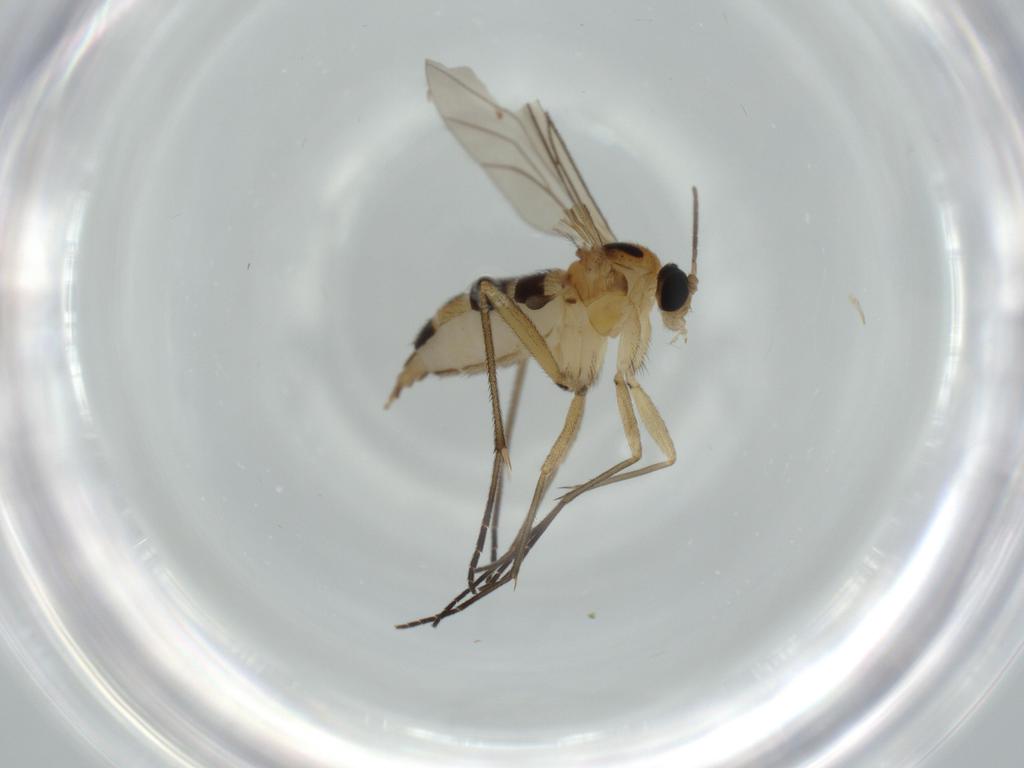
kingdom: Animalia
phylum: Arthropoda
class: Insecta
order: Diptera
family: Sciaridae
